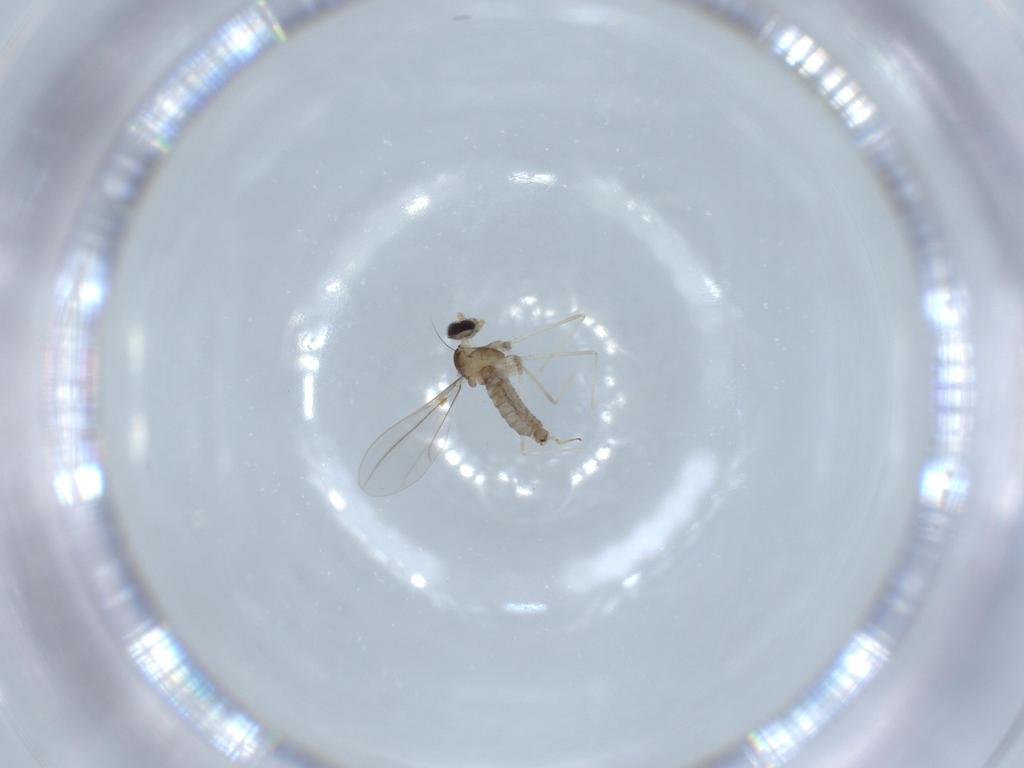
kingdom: Animalia
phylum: Arthropoda
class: Insecta
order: Diptera
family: Cecidomyiidae
